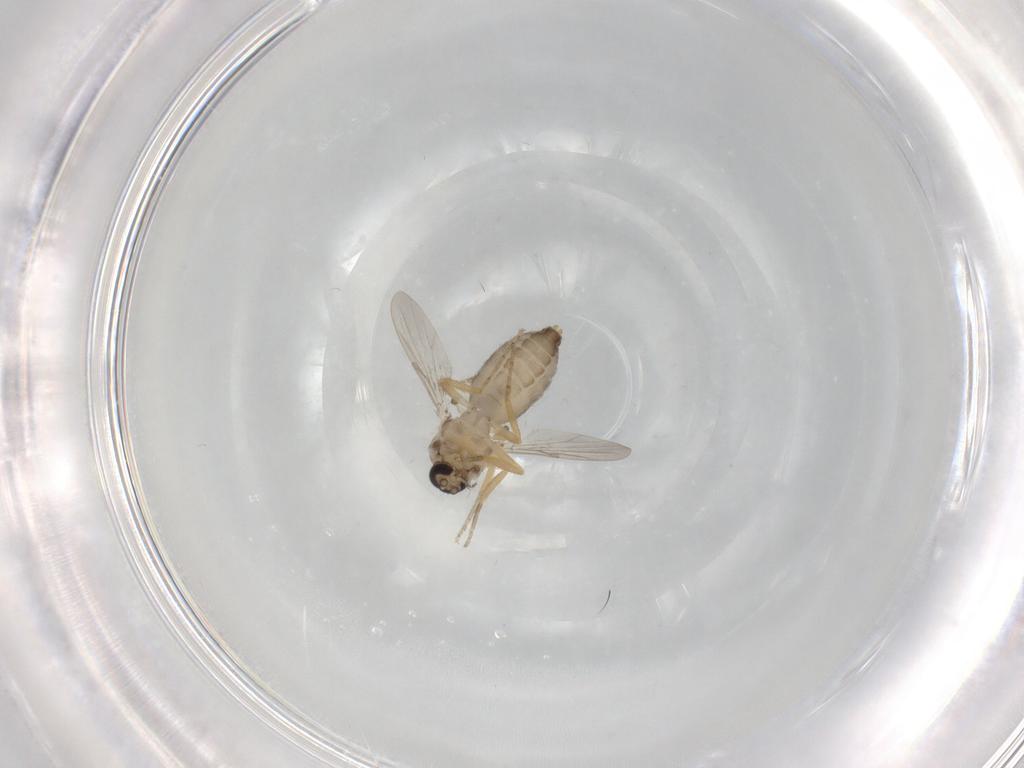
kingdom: Animalia
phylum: Arthropoda
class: Insecta
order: Diptera
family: Ceratopogonidae
